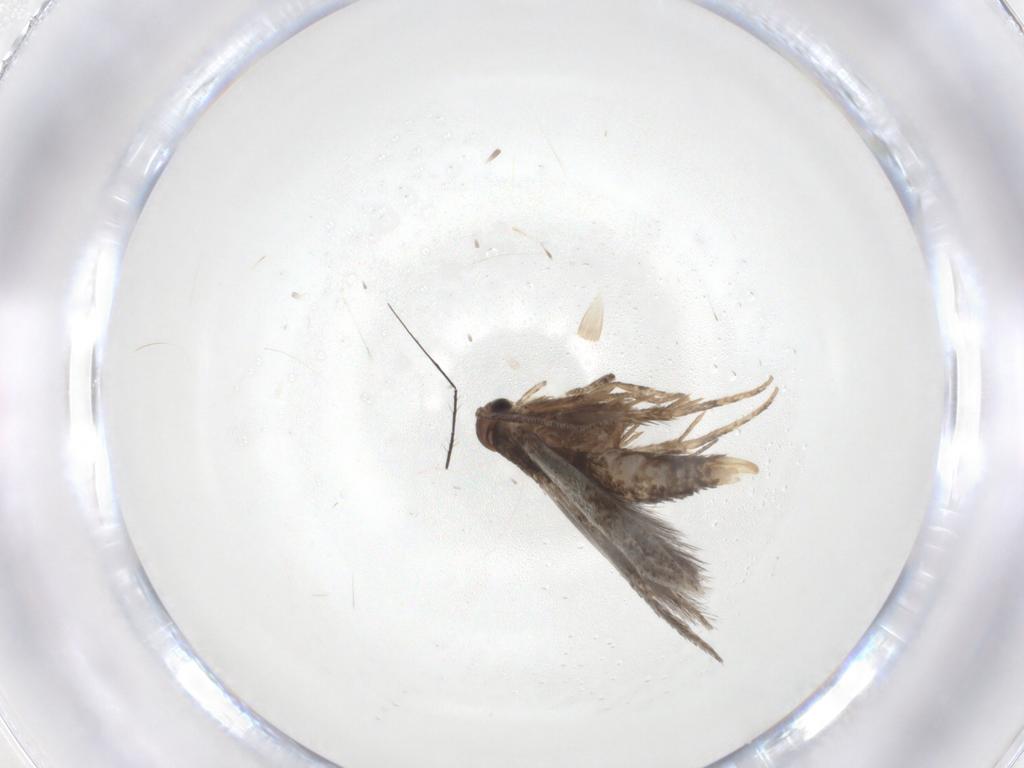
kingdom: Animalia
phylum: Arthropoda
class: Insecta
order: Lepidoptera
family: Elachistidae
